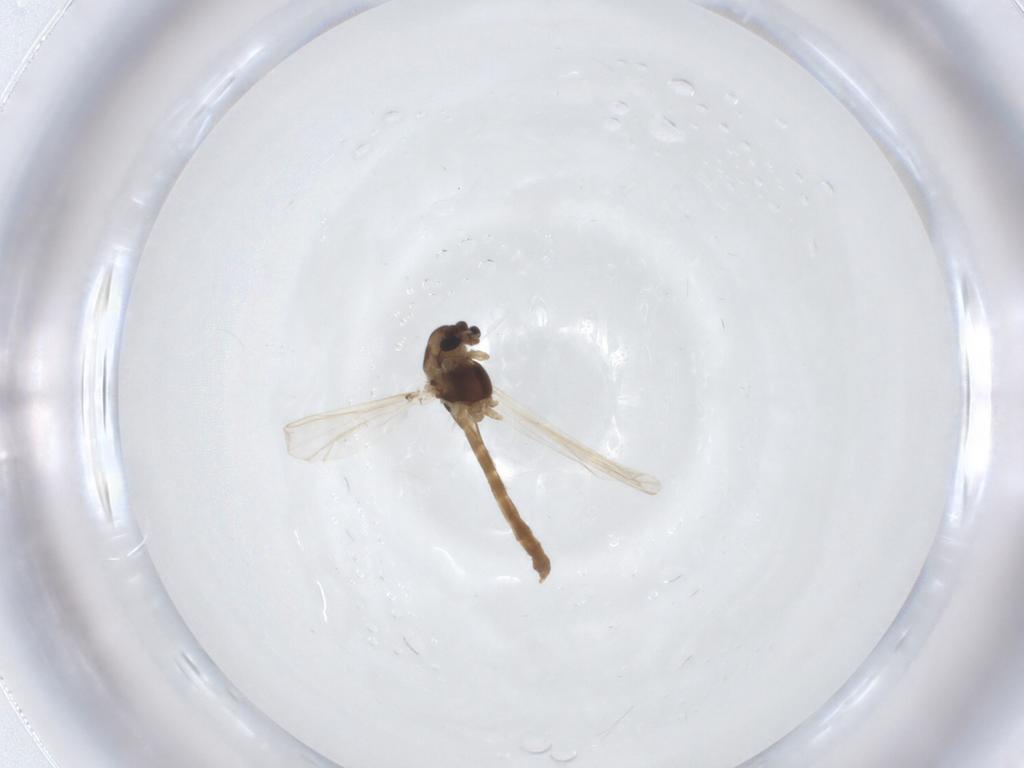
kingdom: Animalia
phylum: Arthropoda
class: Insecta
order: Diptera
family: Chironomidae
